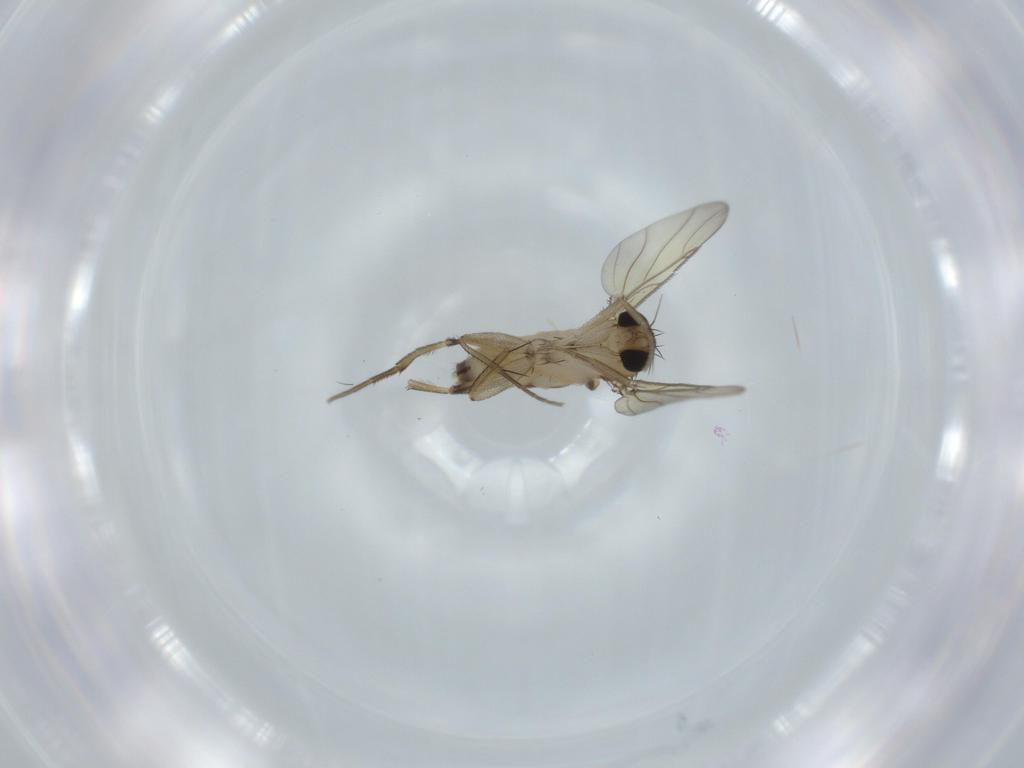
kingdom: Animalia
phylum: Arthropoda
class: Insecta
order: Diptera
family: Phoridae
